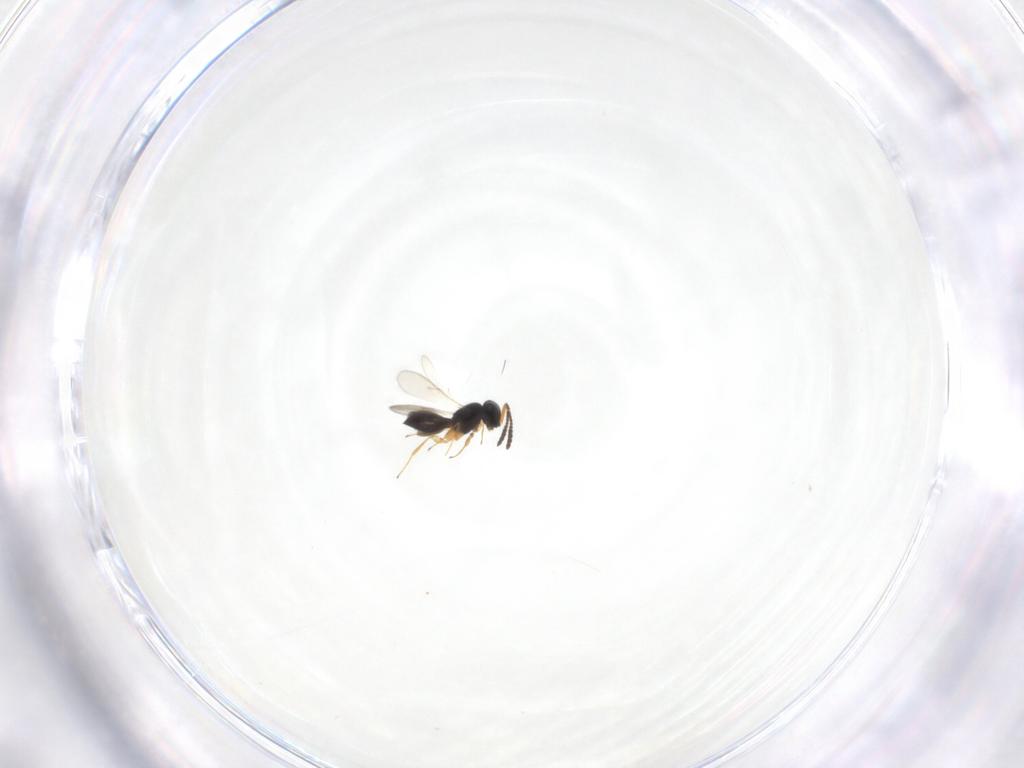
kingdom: Animalia
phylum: Arthropoda
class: Insecta
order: Hymenoptera
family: Scelionidae
